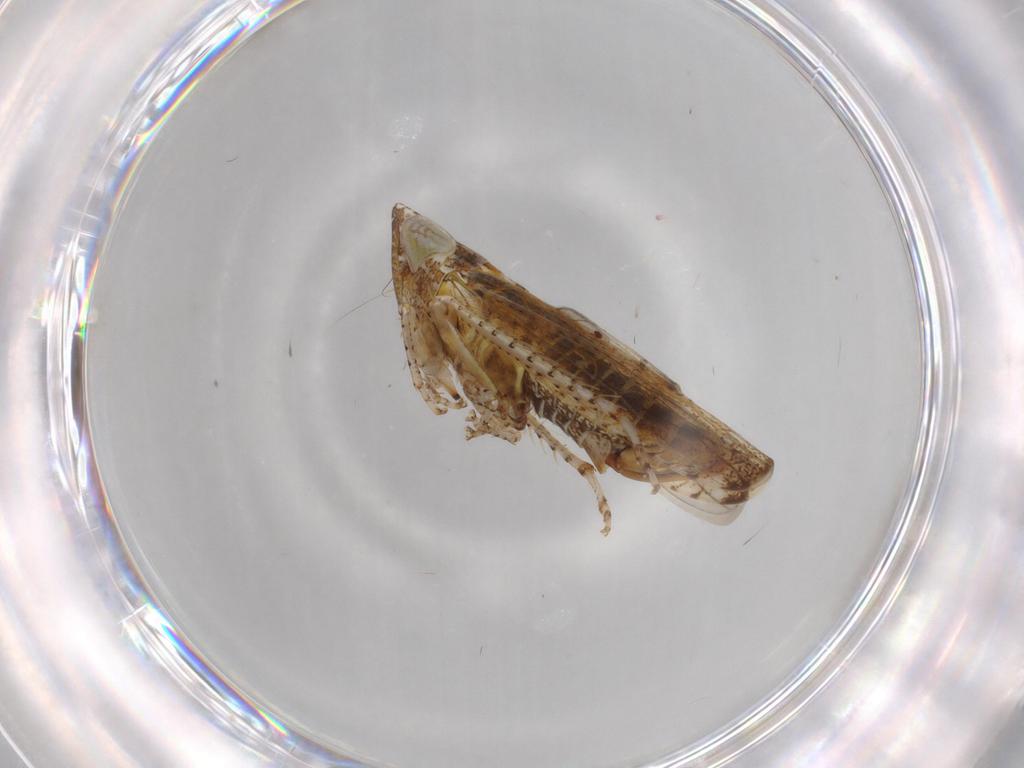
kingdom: Animalia
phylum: Arthropoda
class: Insecta
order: Hemiptera
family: Cicadellidae
